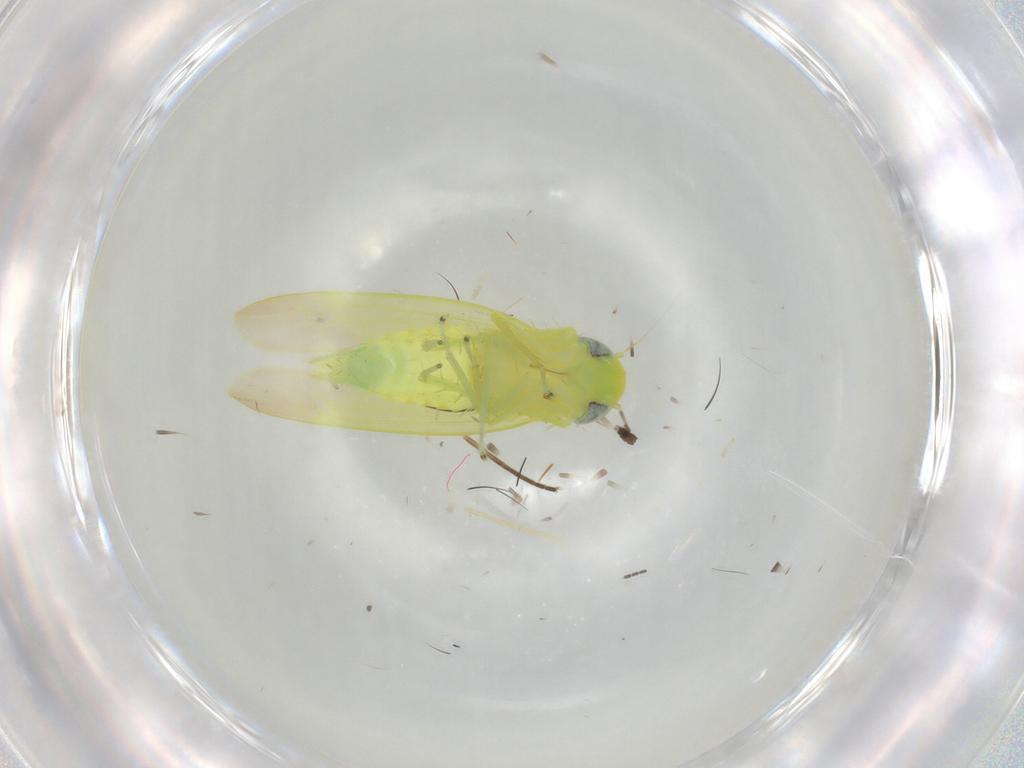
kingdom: Animalia
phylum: Arthropoda
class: Insecta
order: Hemiptera
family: Cicadellidae
